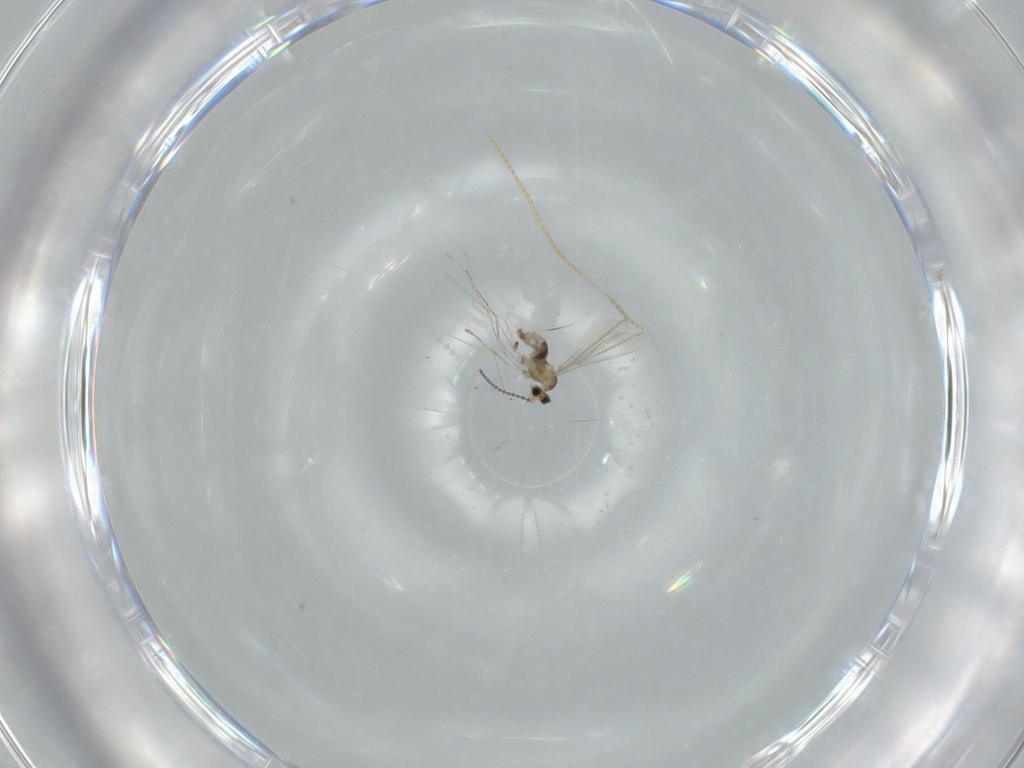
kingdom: Animalia
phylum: Arthropoda
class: Insecta
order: Diptera
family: Cecidomyiidae
